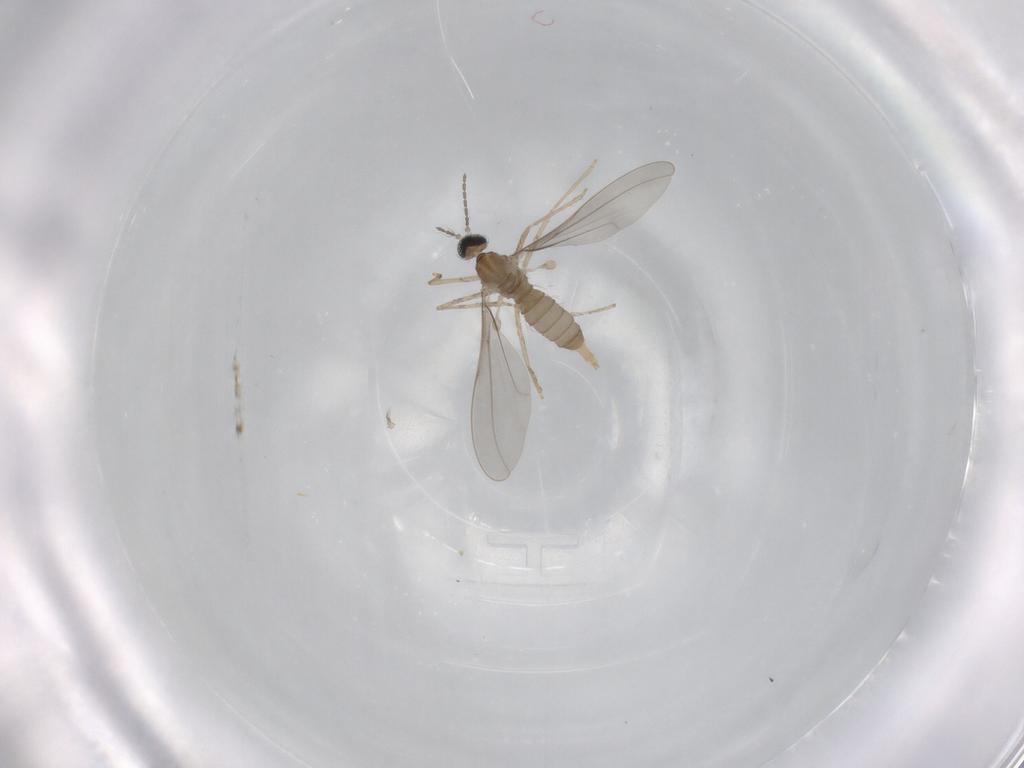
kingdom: Animalia
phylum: Arthropoda
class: Insecta
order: Diptera
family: Cecidomyiidae
